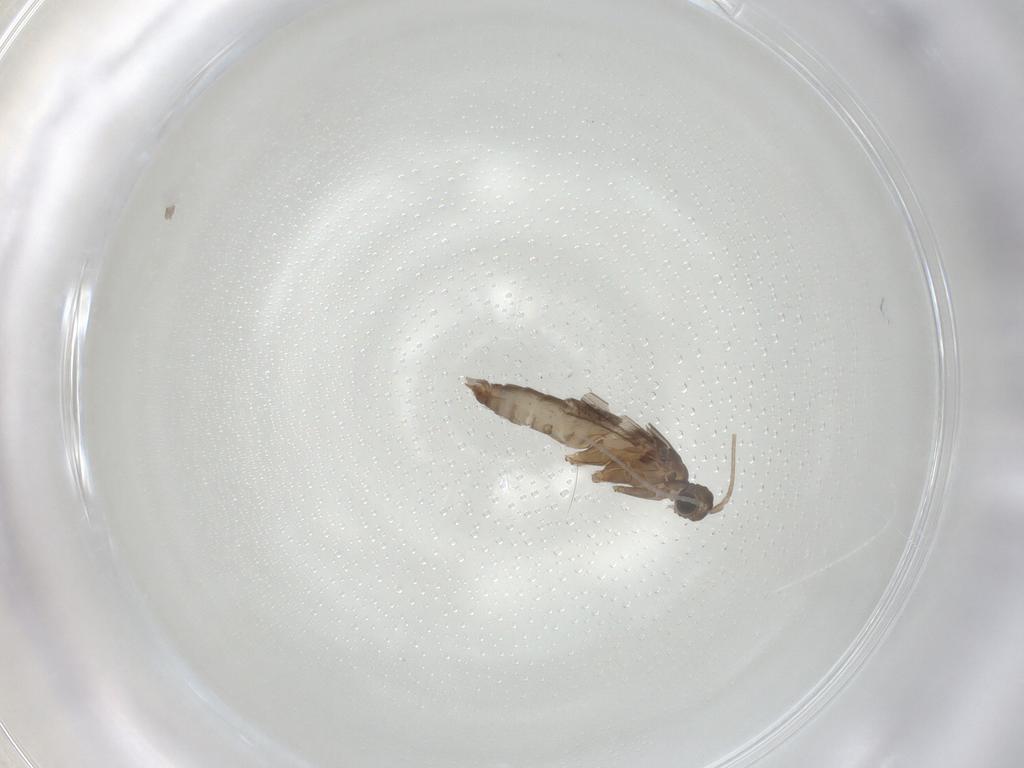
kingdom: Animalia
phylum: Arthropoda
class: Insecta
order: Trichoptera
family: Xiphocentronidae
